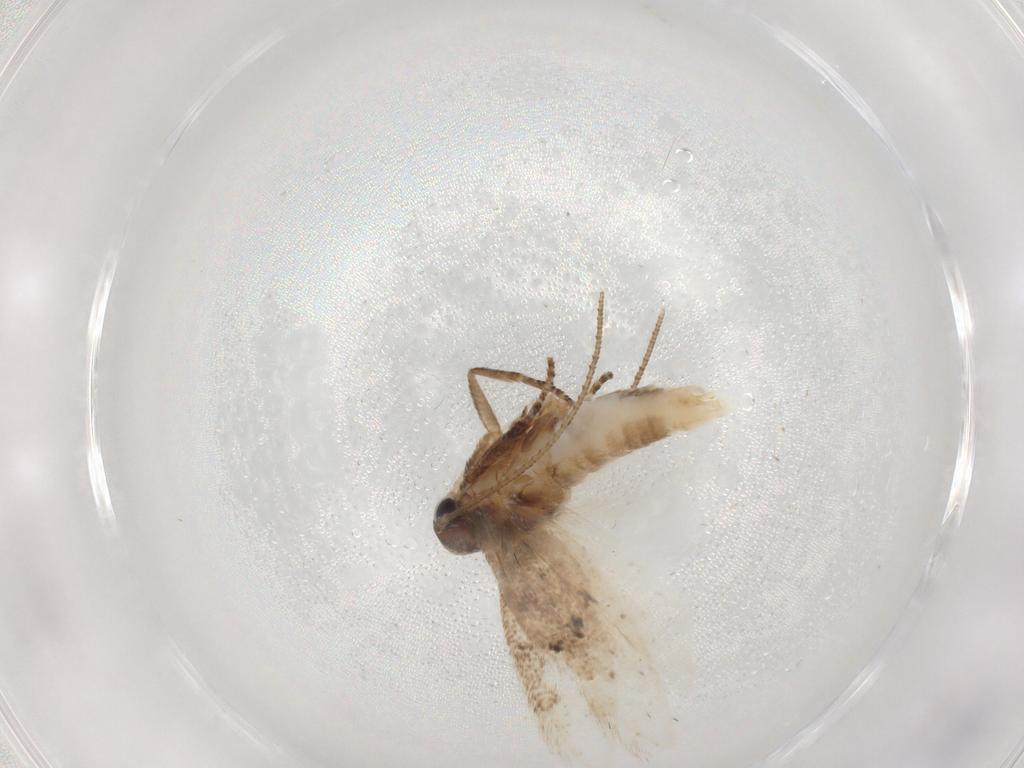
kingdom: Animalia
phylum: Arthropoda
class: Insecta
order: Lepidoptera
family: Gelechiidae
